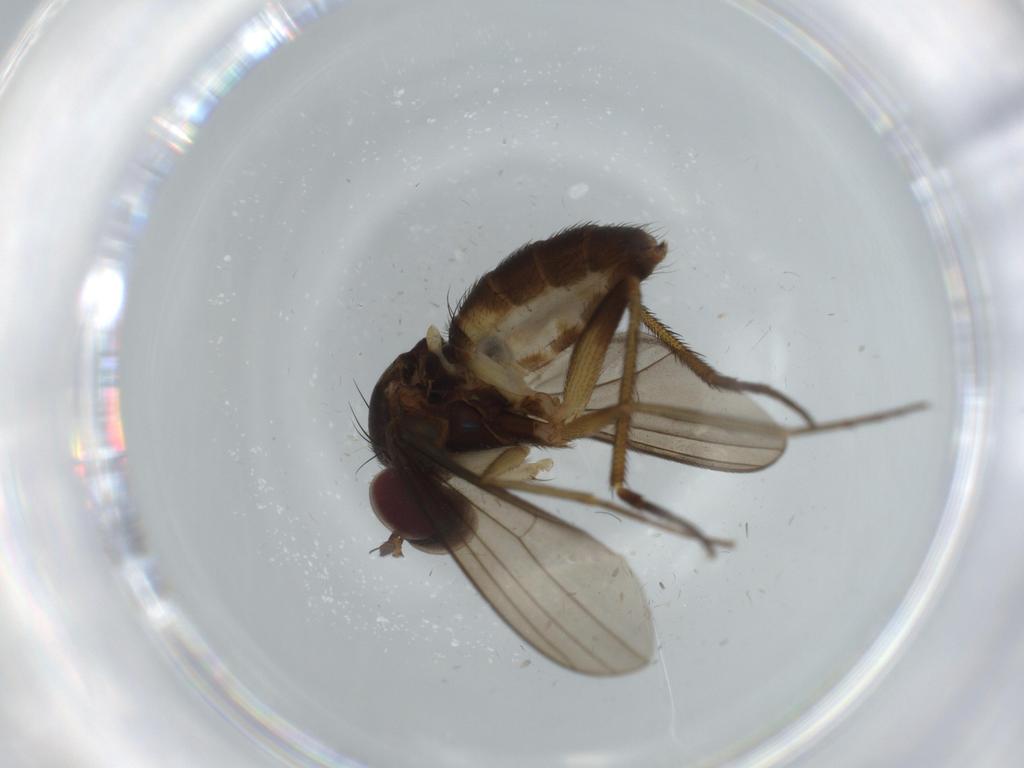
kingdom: Animalia
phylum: Arthropoda
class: Insecta
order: Diptera
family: Dolichopodidae
